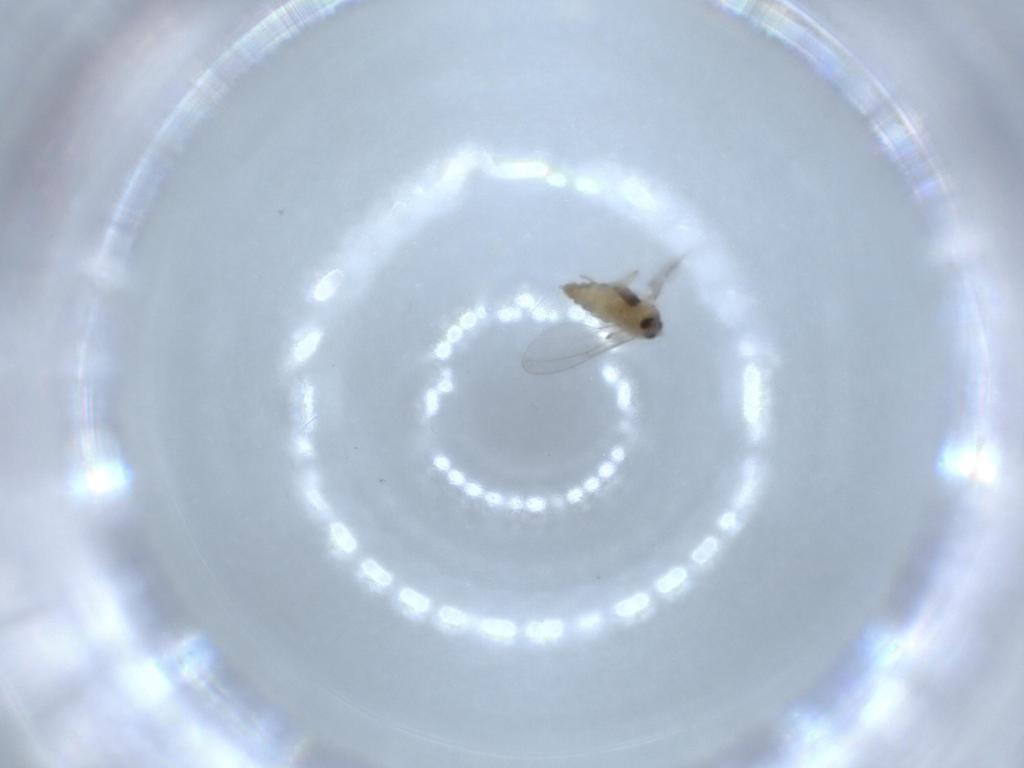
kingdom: Animalia
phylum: Arthropoda
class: Insecta
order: Diptera
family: Cecidomyiidae
